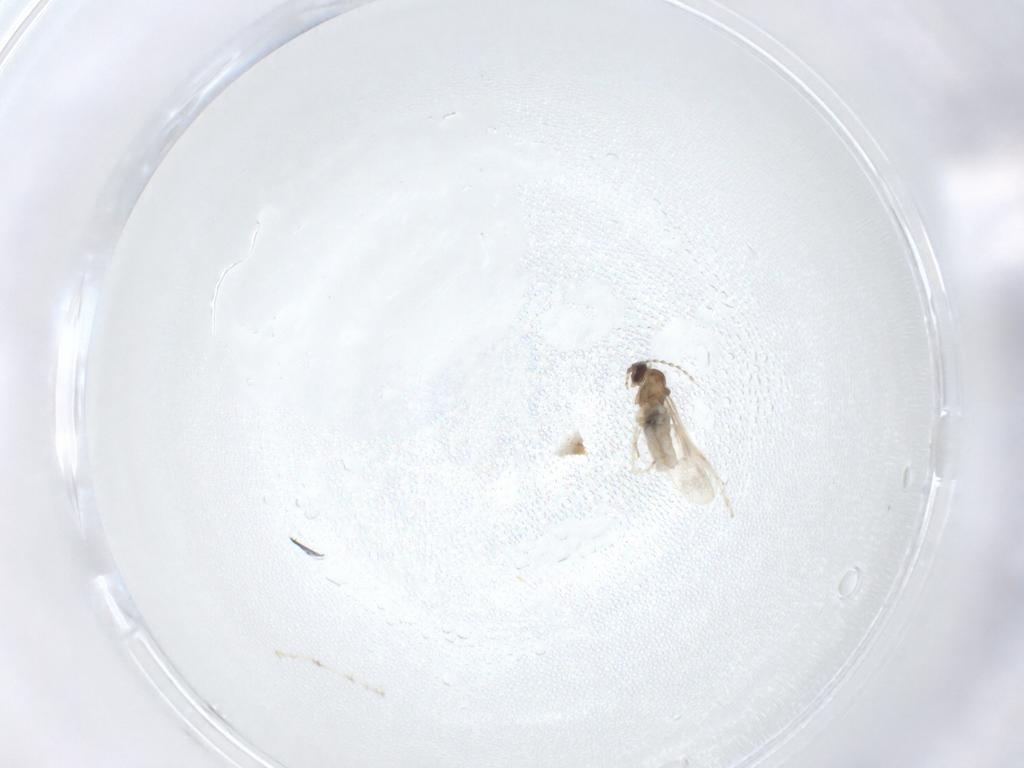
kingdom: Animalia
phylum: Arthropoda
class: Insecta
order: Diptera
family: Cecidomyiidae
